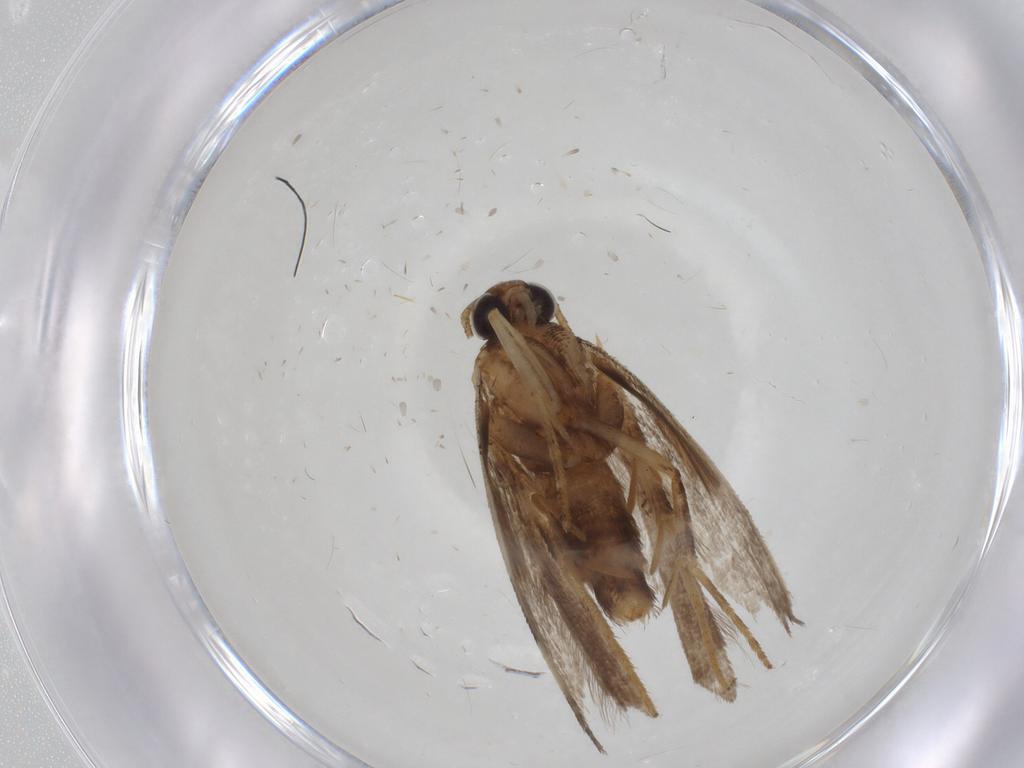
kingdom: Animalia
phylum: Arthropoda
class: Insecta
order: Lepidoptera
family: Gelechiidae
